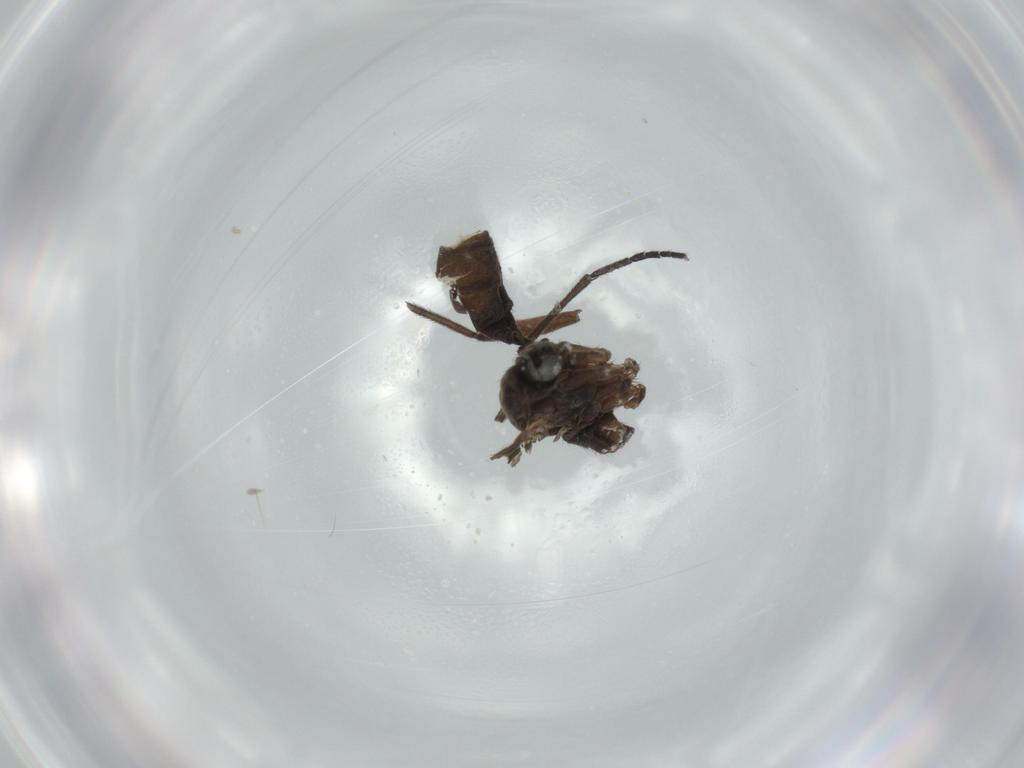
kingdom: Animalia
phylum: Arthropoda
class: Insecta
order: Diptera
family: Sciaridae
